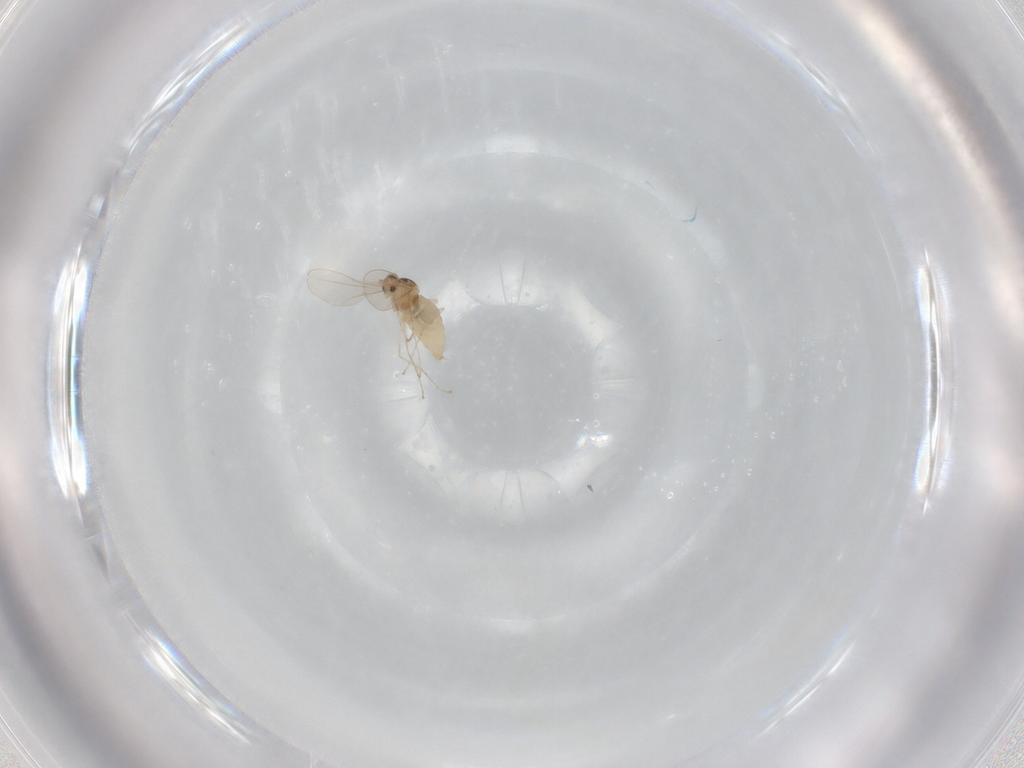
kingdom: Animalia
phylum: Arthropoda
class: Insecta
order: Diptera
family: Cecidomyiidae
